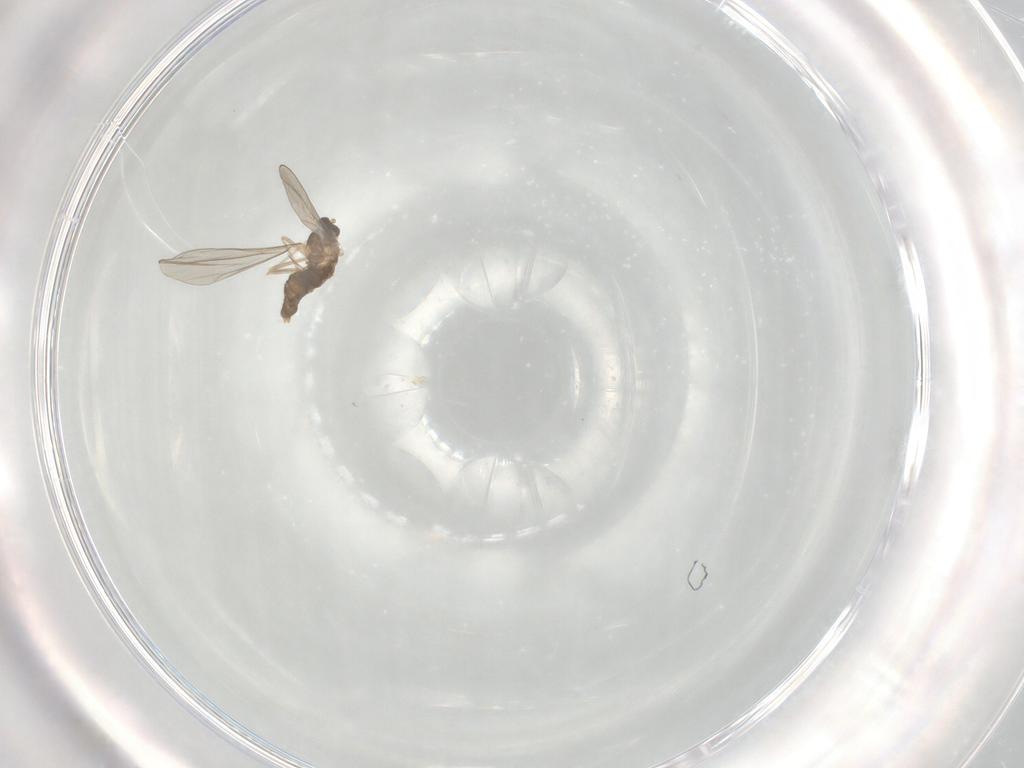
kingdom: Animalia
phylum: Arthropoda
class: Insecta
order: Diptera
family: Cecidomyiidae
